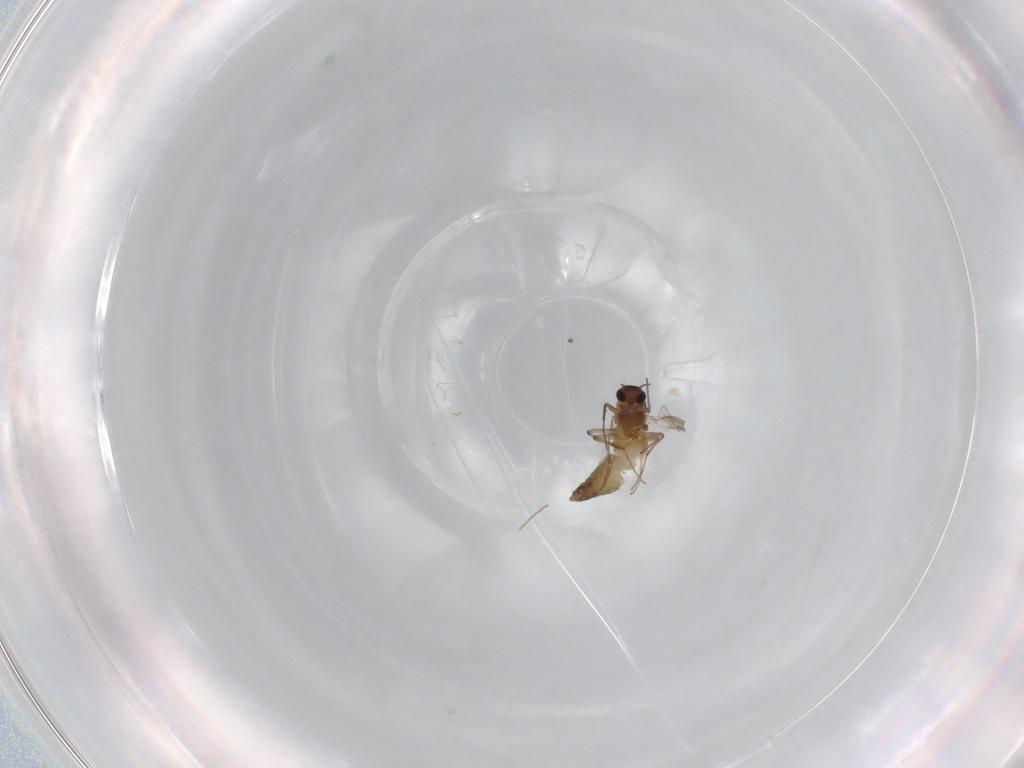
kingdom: Animalia
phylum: Arthropoda
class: Insecta
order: Diptera
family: Chironomidae
